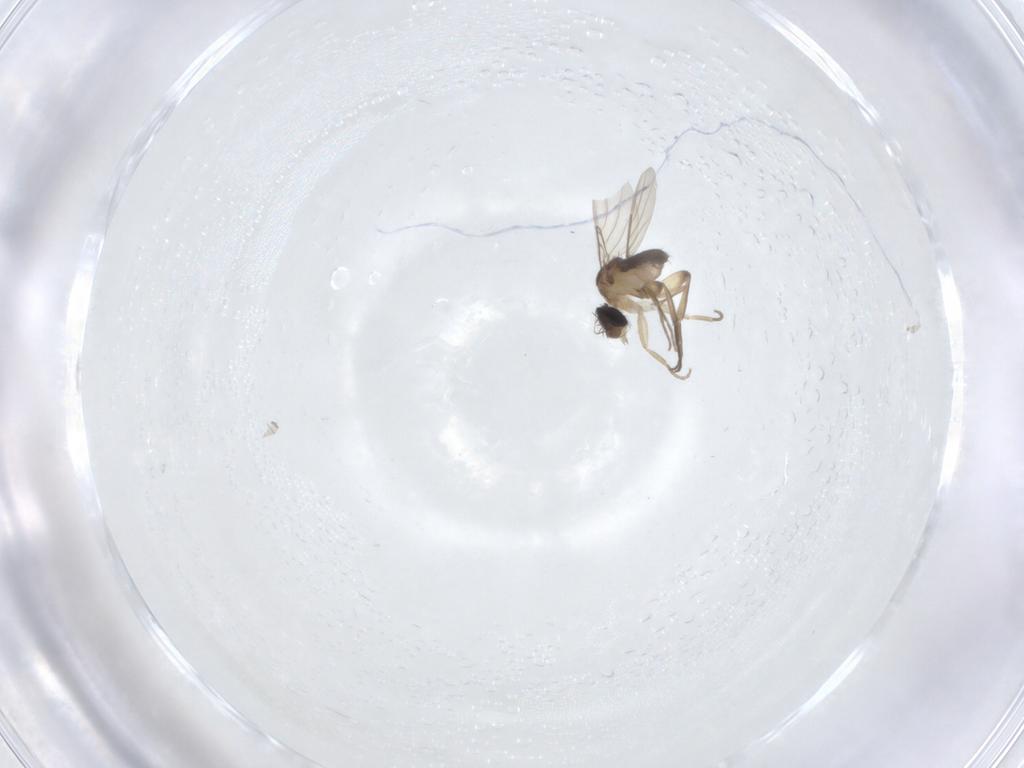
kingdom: Animalia
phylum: Arthropoda
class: Insecta
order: Diptera
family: Phoridae
